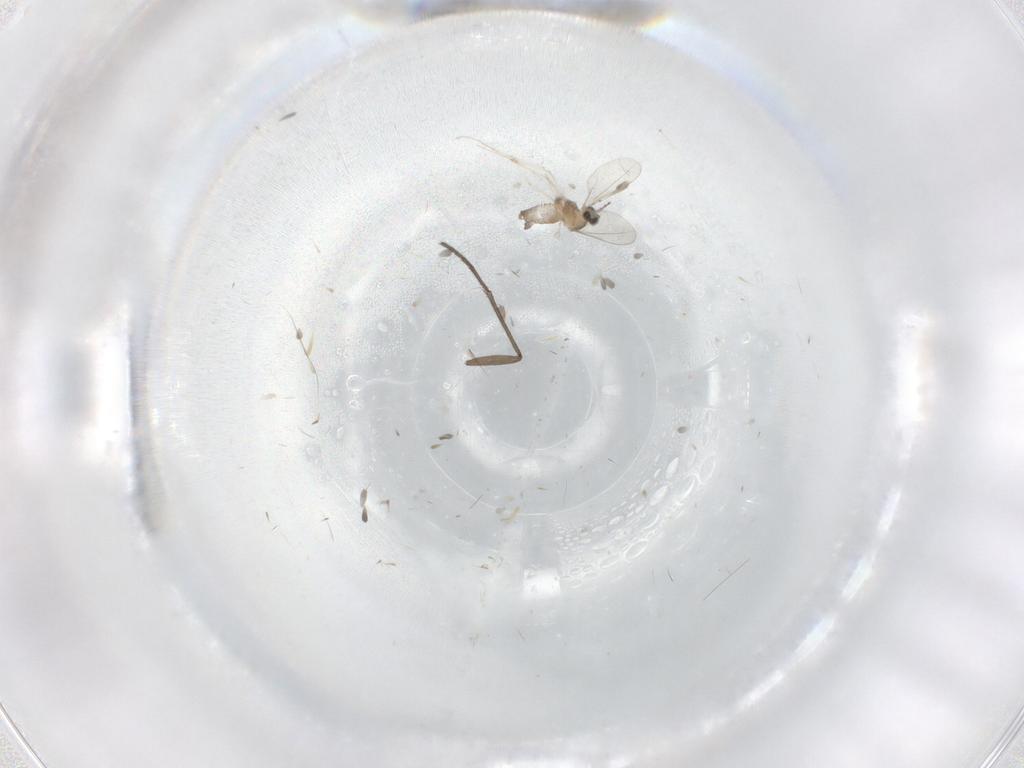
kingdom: Animalia
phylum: Arthropoda
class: Insecta
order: Diptera
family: Cecidomyiidae
